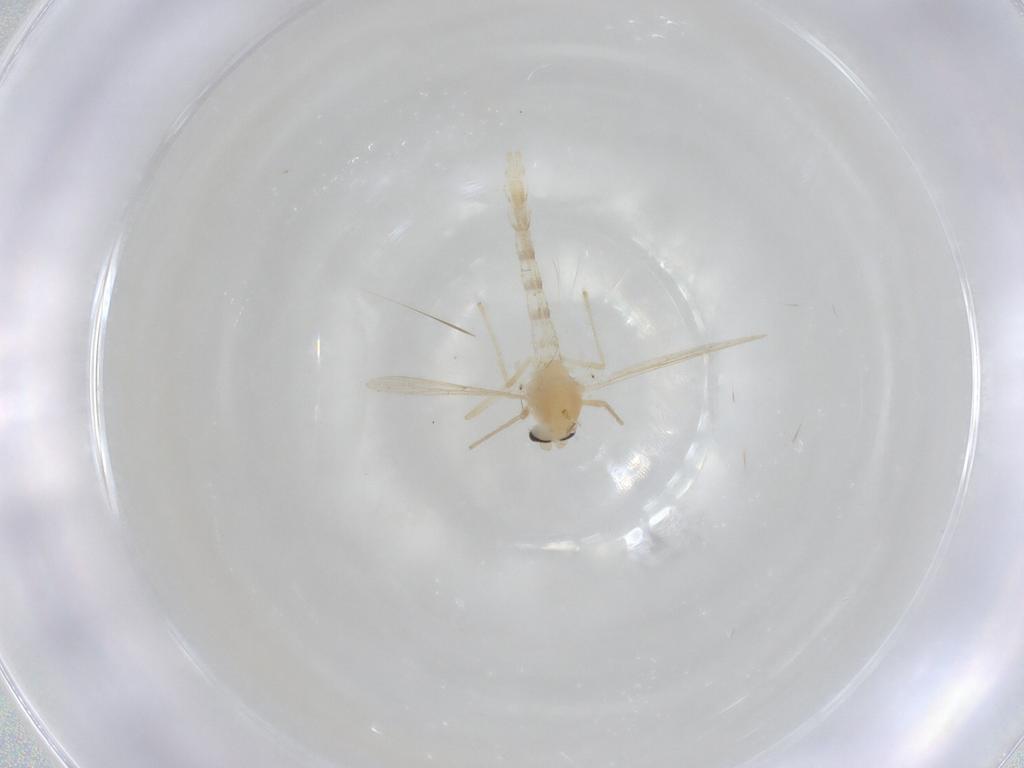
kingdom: Animalia
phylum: Arthropoda
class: Insecta
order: Diptera
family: Chironomidae
